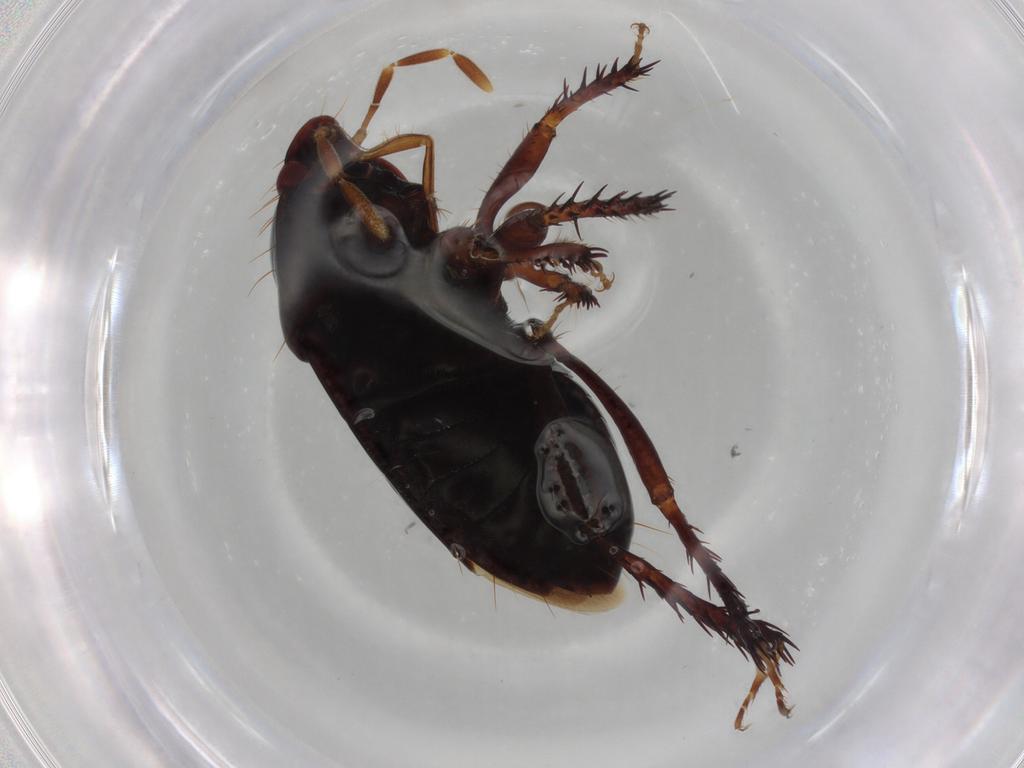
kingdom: Animalia
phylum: Arthropoda
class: Insecta
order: Hemiptera
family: Cydnidae
